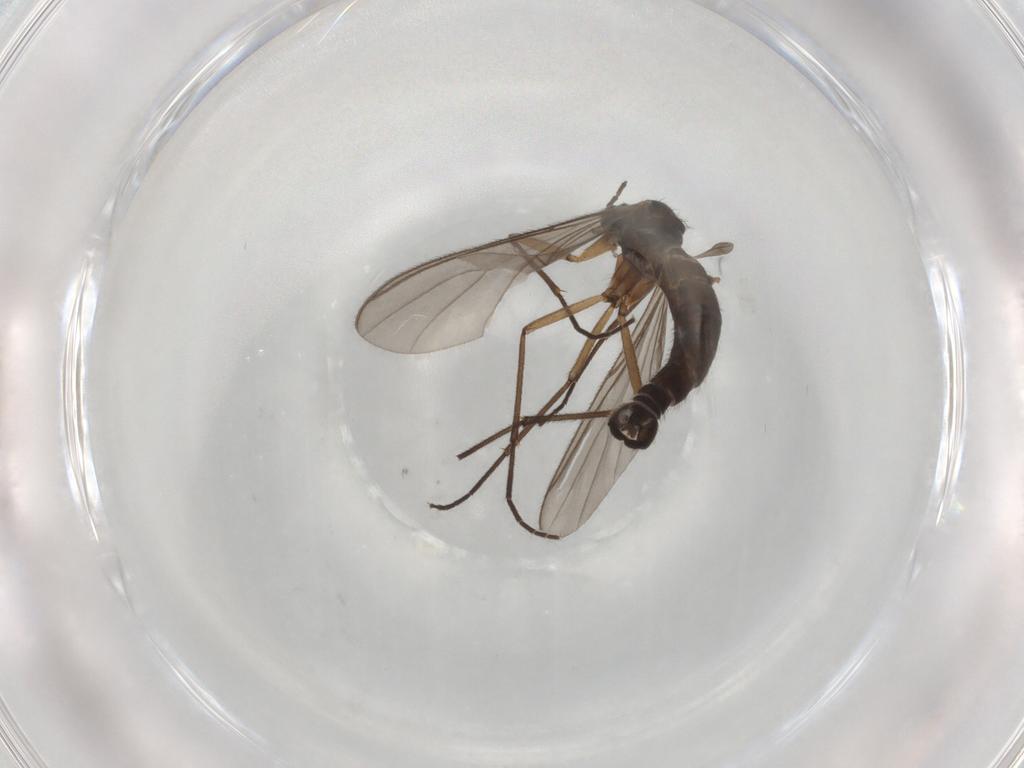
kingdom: Animalia
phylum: Arthropoda
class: Insecta
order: Diptera
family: Sciaridae
